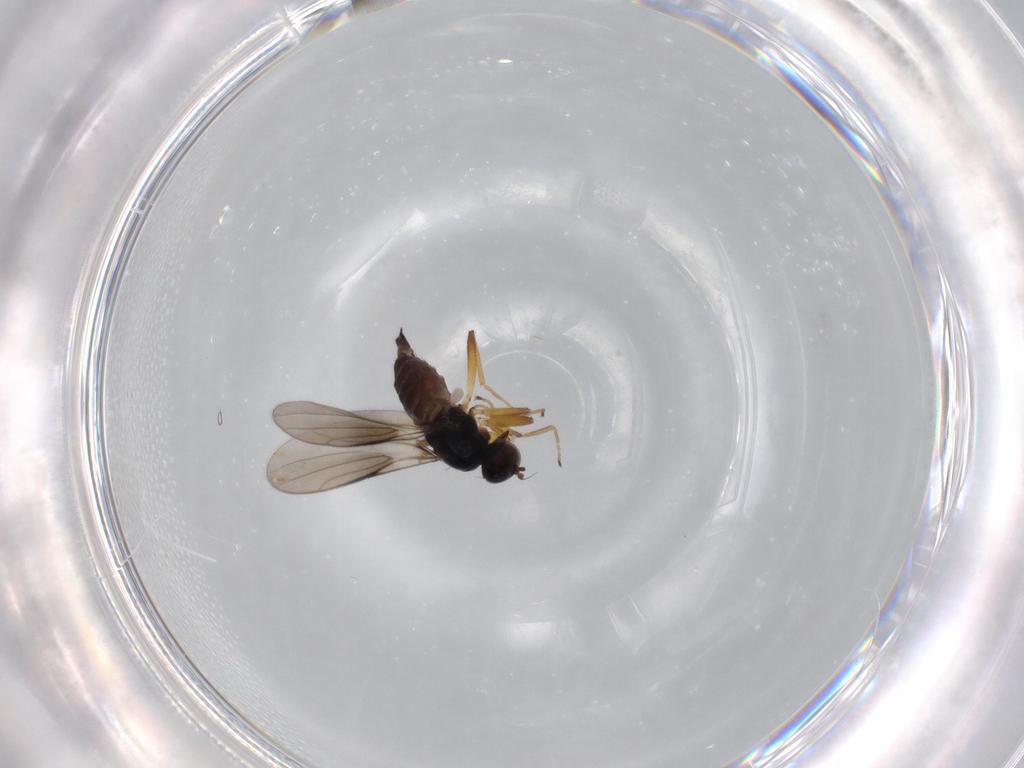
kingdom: Animalia
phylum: Arthropoda
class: Insecta
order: Diptera
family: Hybotidae
